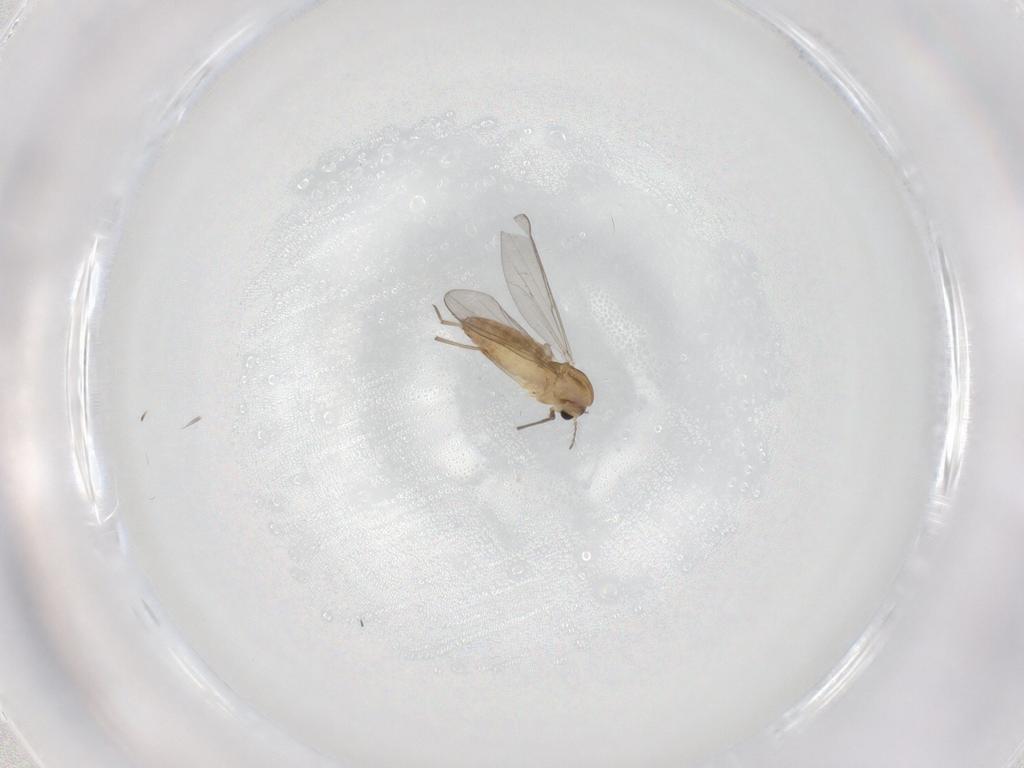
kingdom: Animalia
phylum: Arthropoda
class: Insecta
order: Diptera
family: Chironomidae
